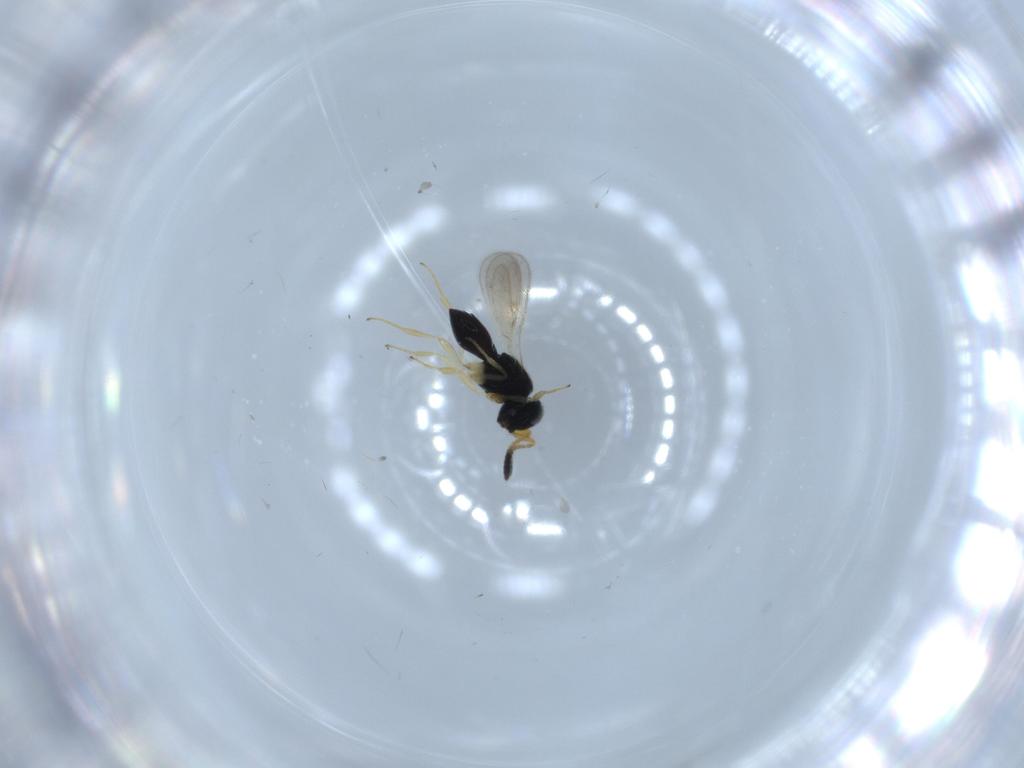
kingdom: Animalia
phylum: Arthropoda
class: Insecta
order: Hymenoptera
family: Scelionidae
